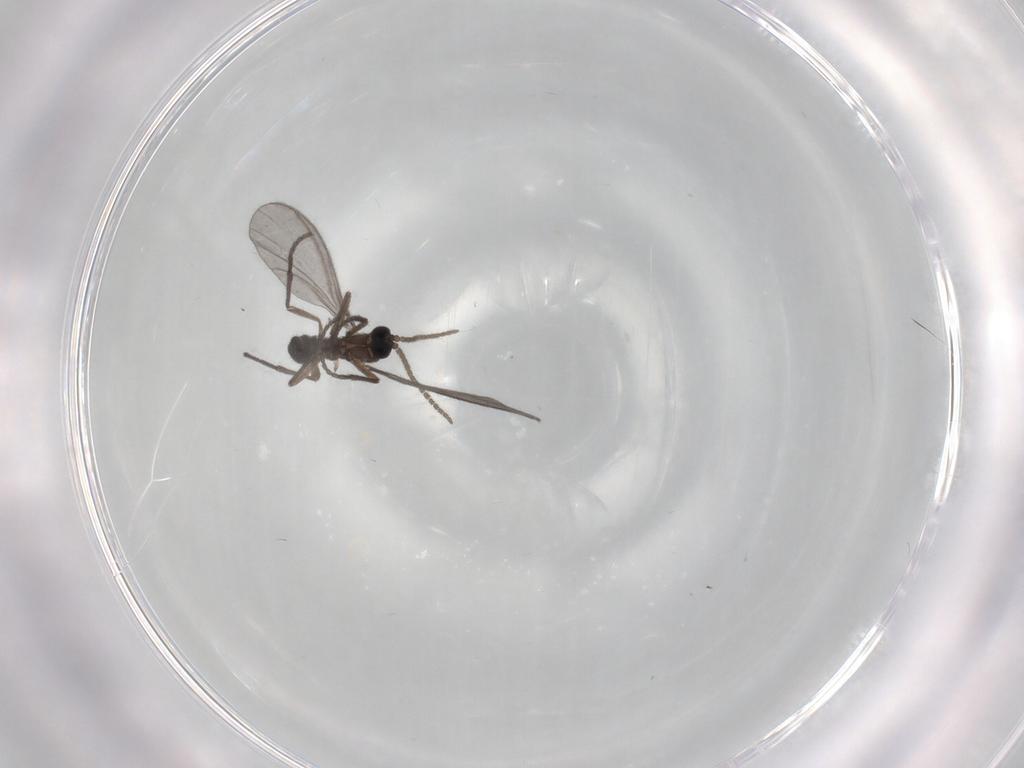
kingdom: Animalia
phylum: Arthropoda
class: Insecta
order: Diptera
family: Sciaridae
